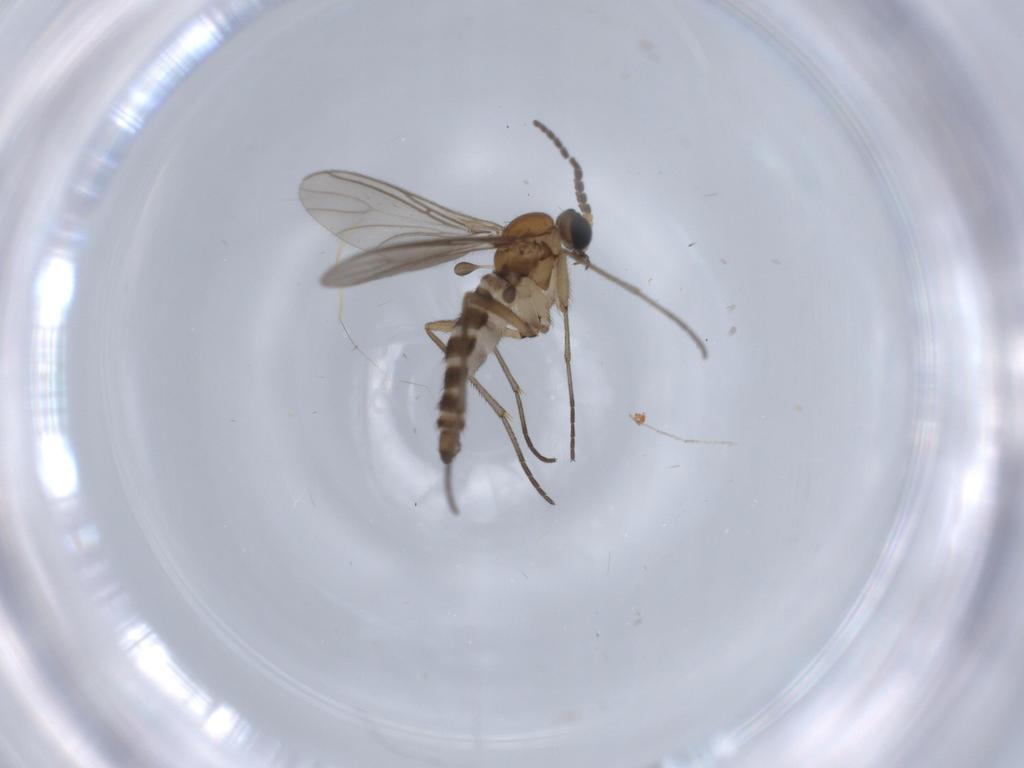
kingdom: Animalia
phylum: Arthropoda
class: Insecta
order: Diptera
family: Sciaridae
